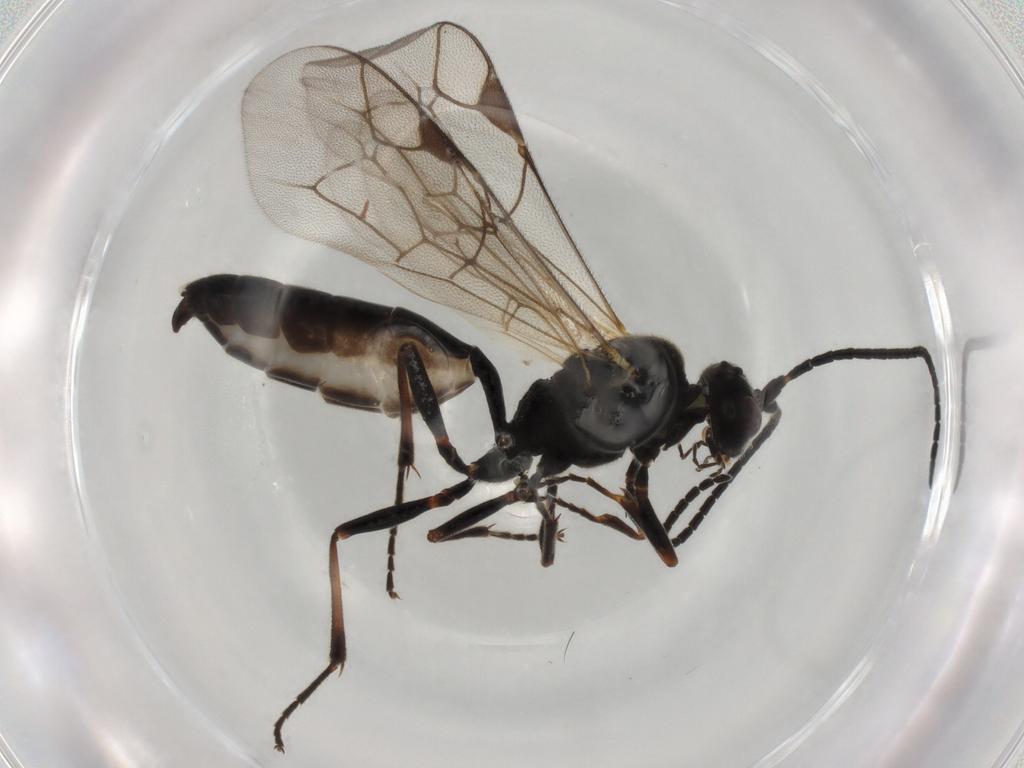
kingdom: Animalia
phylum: Arthropoda
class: Insecta
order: Hymenoptera
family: Ichneumonidae
